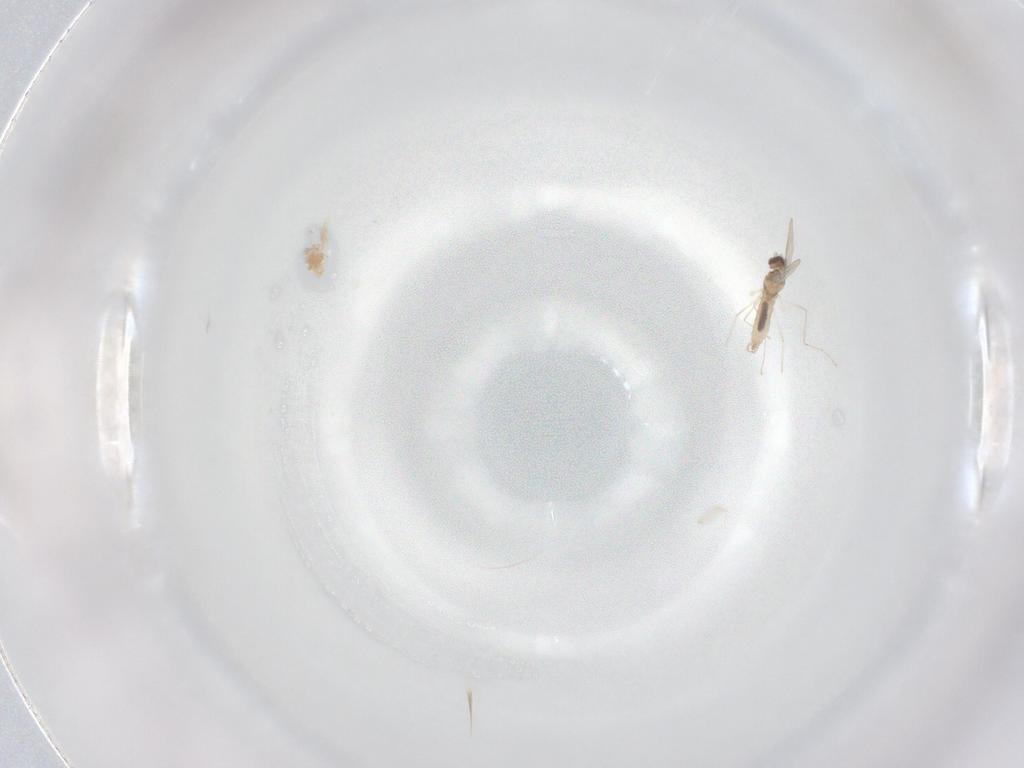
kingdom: Animalia
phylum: Arthropoda
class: Insecta
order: Diptera
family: Cecidomyiidae
